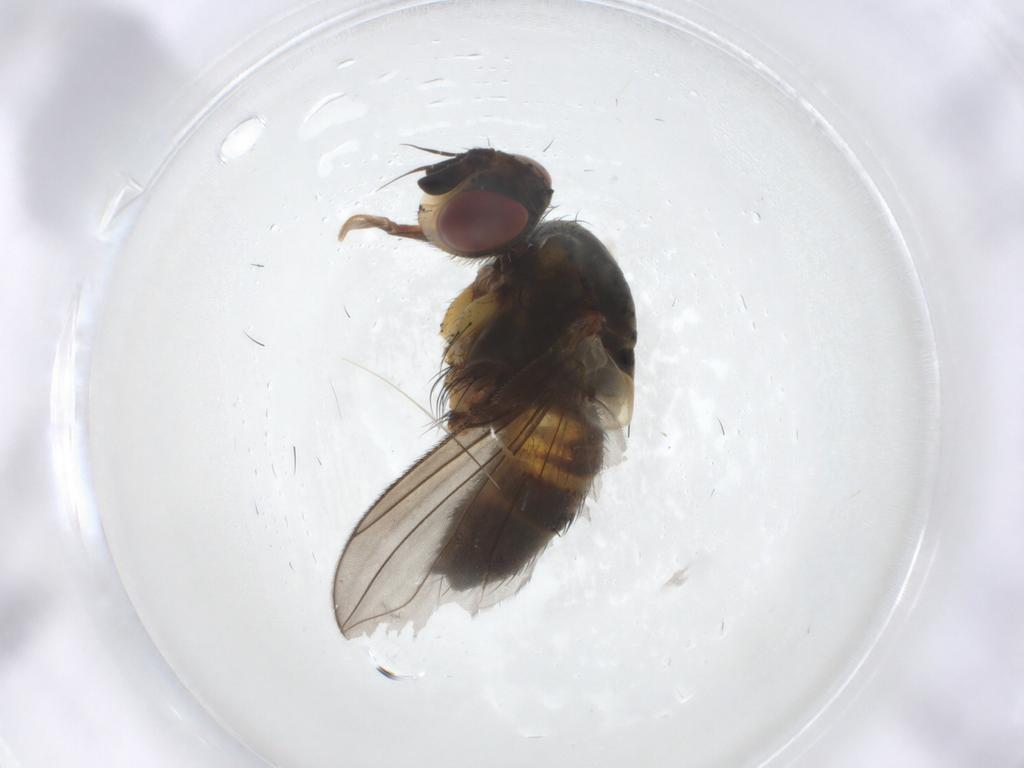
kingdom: Animalia
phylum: Arthropoda
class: Insecta
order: Diptera
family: Tachinidae
